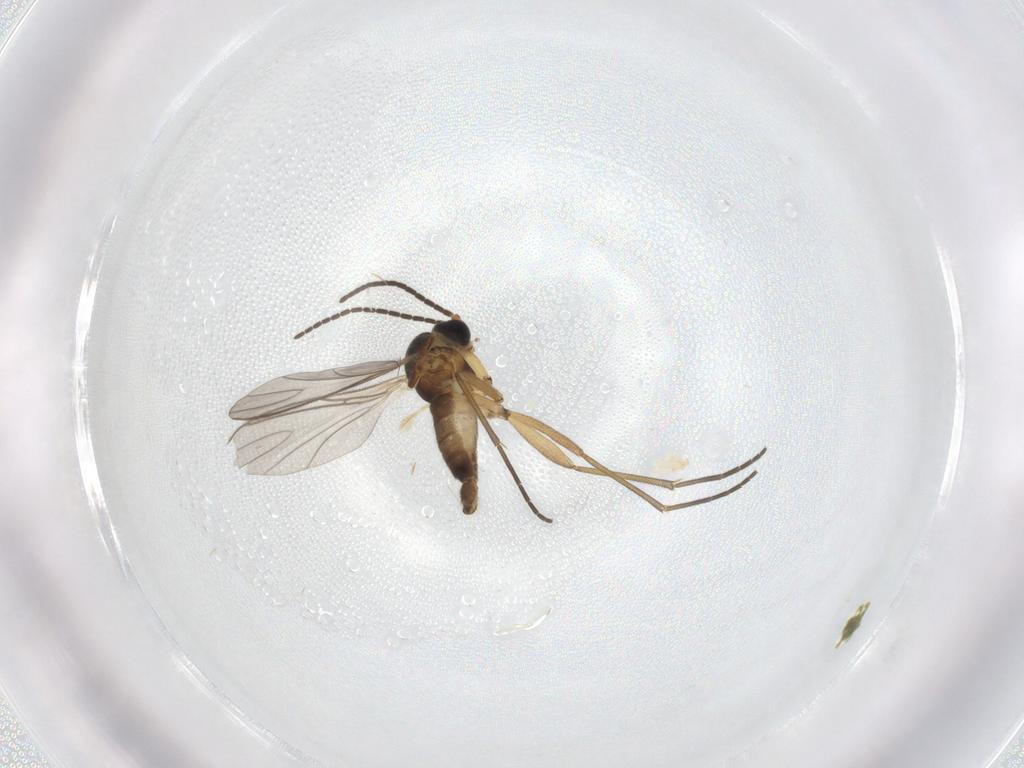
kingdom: Animalia
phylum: Arthropoda
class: Insecta
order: Diptera
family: Sciaridae
